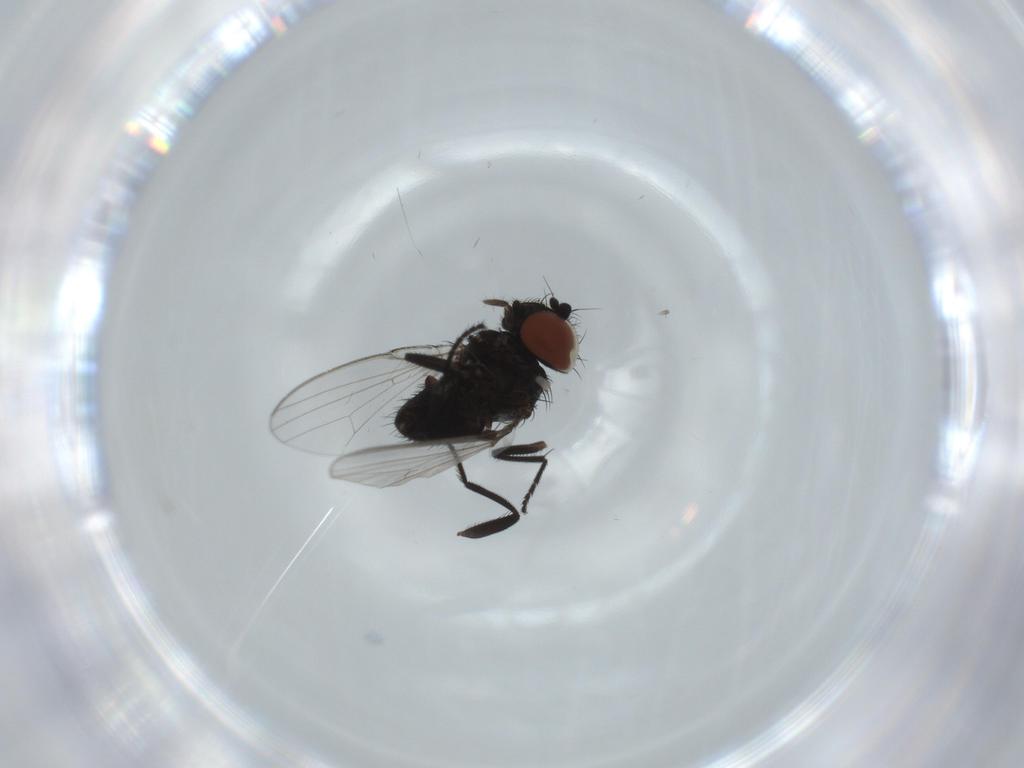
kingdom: Animalia
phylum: Arthropoda
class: Insecta
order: Diptera
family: Milichiidae
